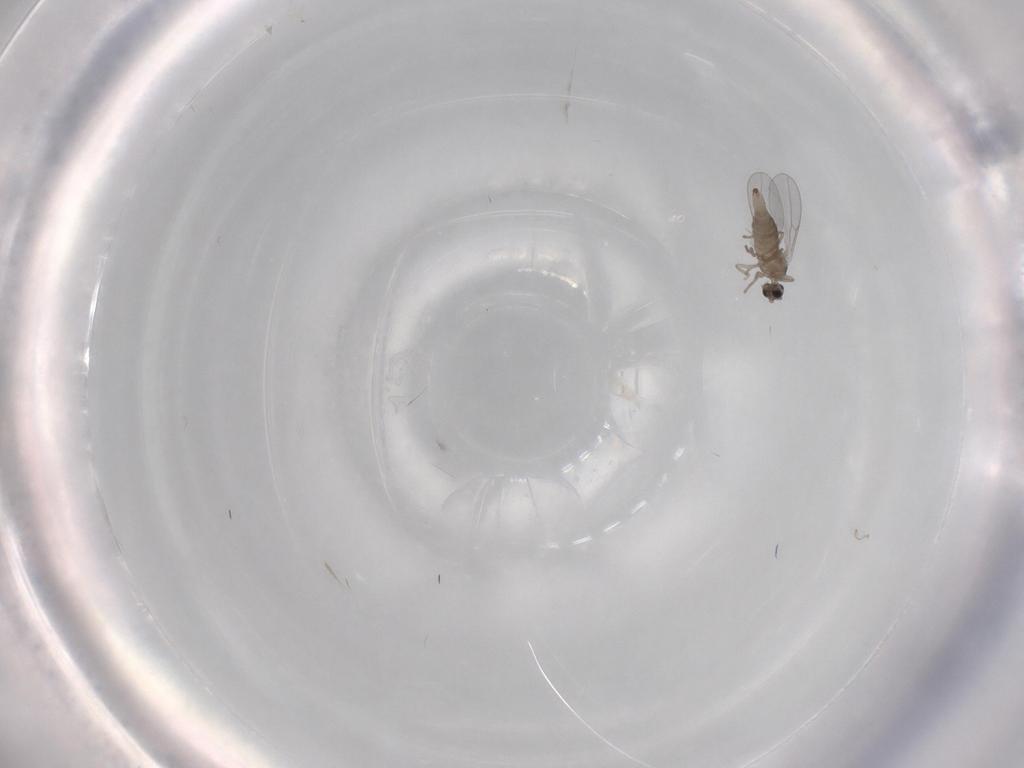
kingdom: Animalia
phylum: Arthropoda
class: Insecta
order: Diptera
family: Cecidomyiidae
